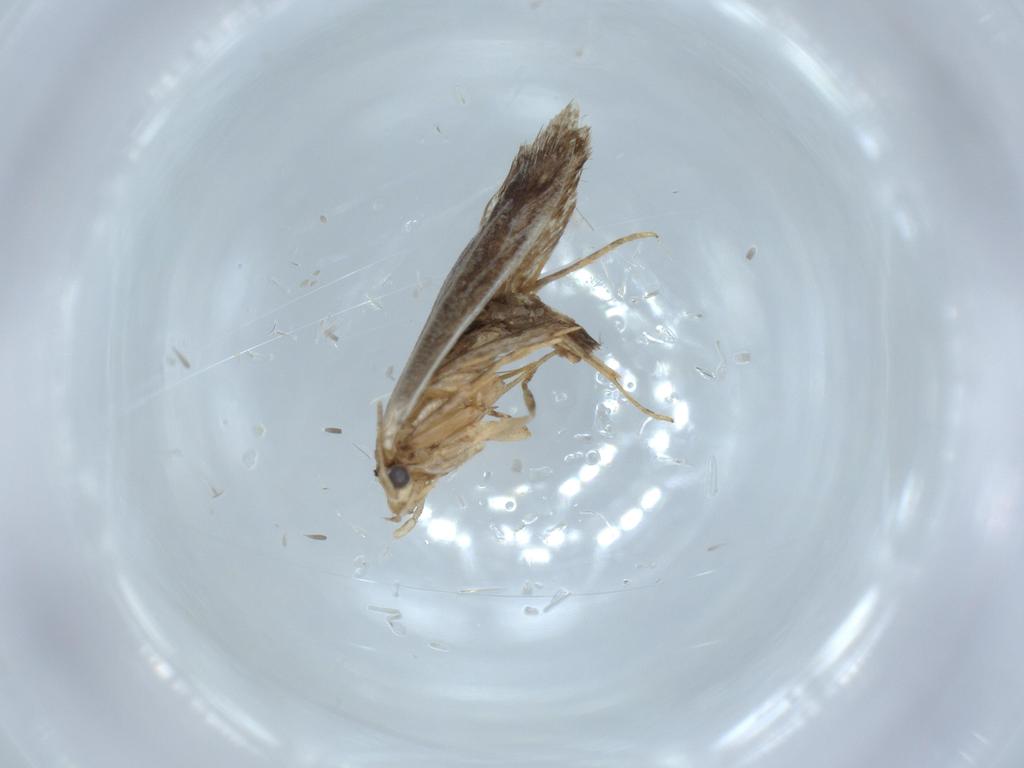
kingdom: Animalia
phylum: Arthropoda
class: Insecta
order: Lepidoptera
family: Tineidae
